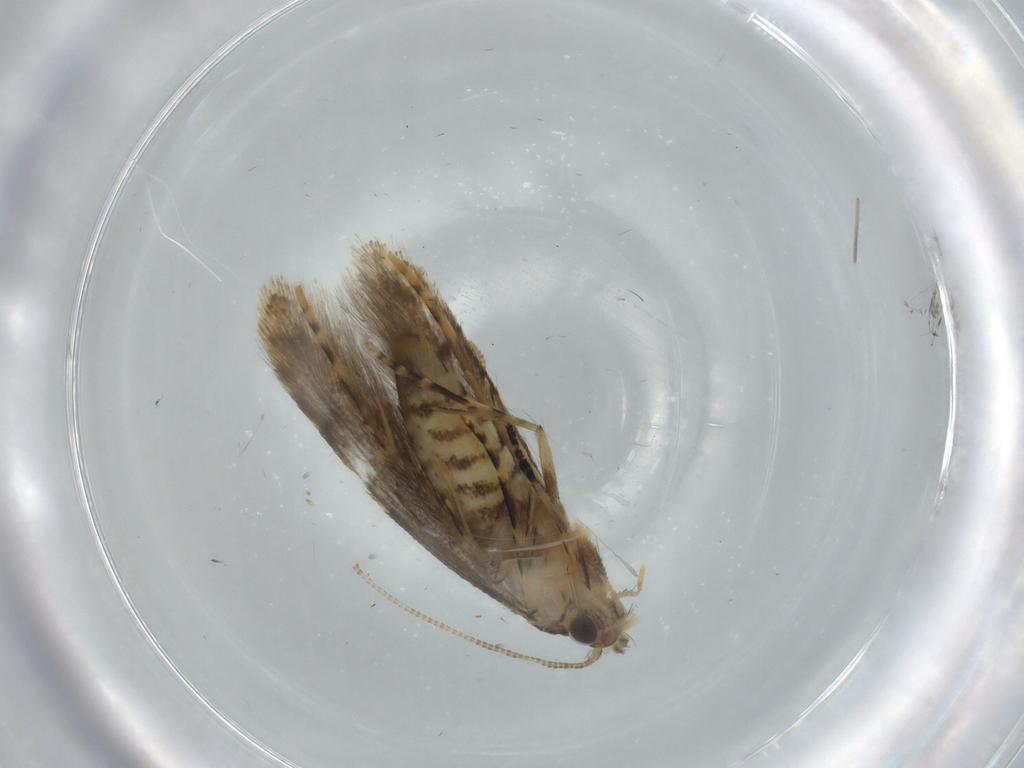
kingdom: Animalia
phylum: Arthropoda
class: Insecta
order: Lepidoptera
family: Tineidae
